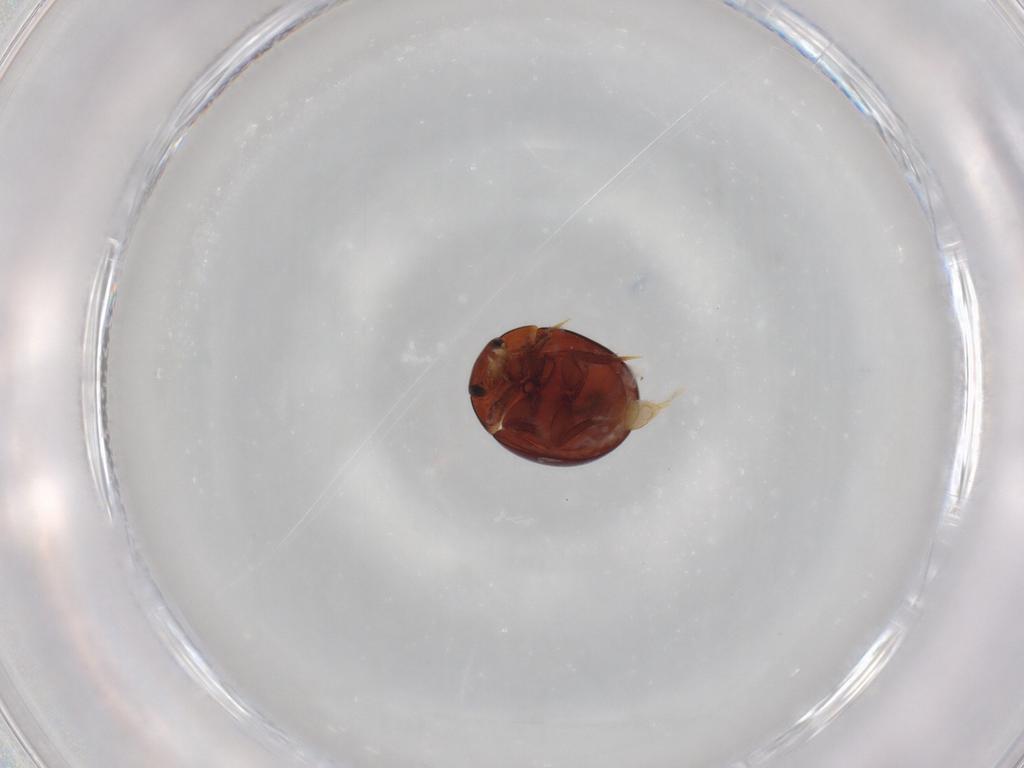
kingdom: Animalia
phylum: Arthropoda
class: Insecta
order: Coleoptera
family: Hydrophilidae
